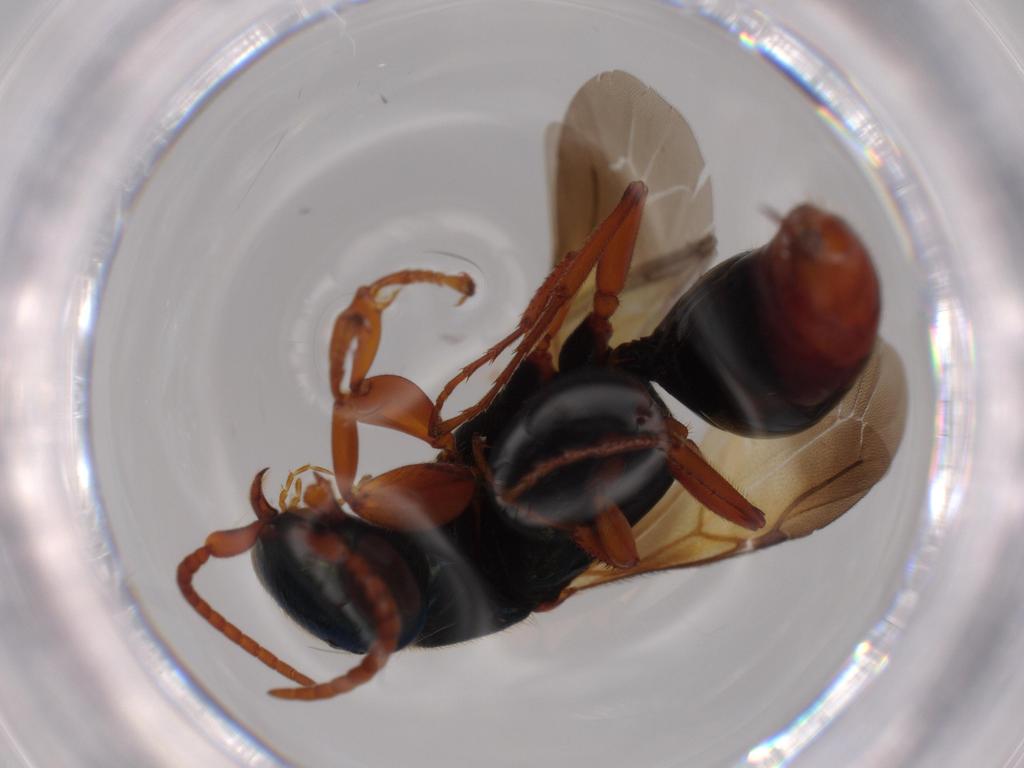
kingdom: Animalia
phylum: Arthropoda
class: Insecta
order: Hymenoptera
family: Bethylidae
